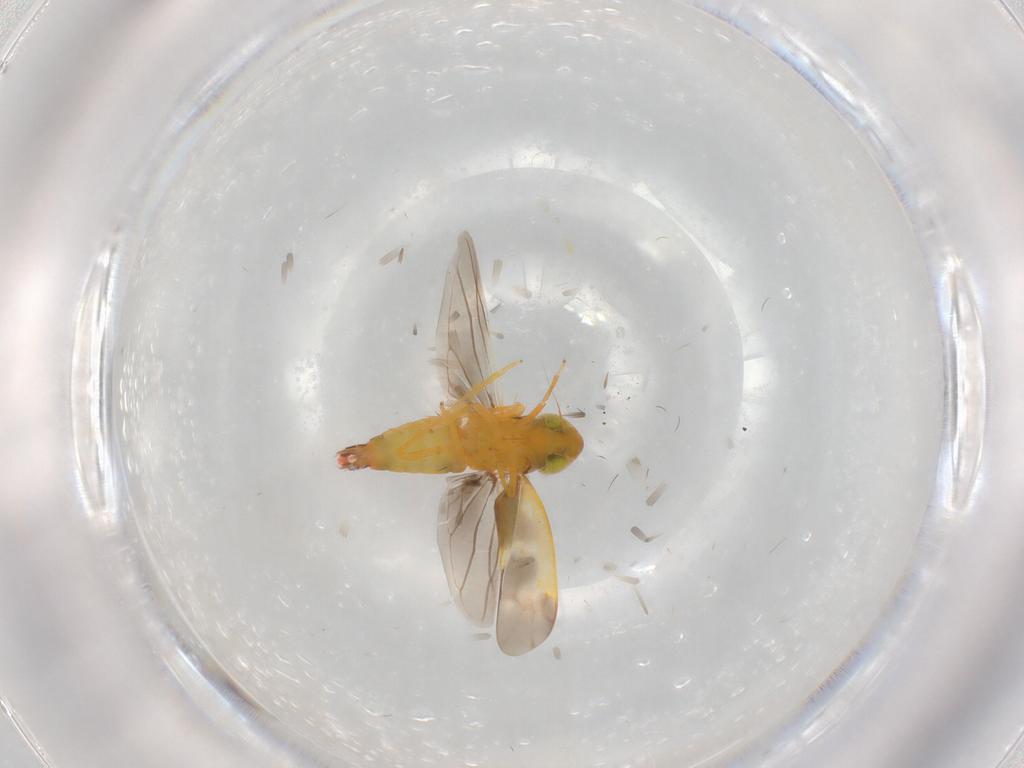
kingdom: Animalia
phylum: Arthropoda
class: Insecta
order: Hemiptera
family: Cicadellidae
